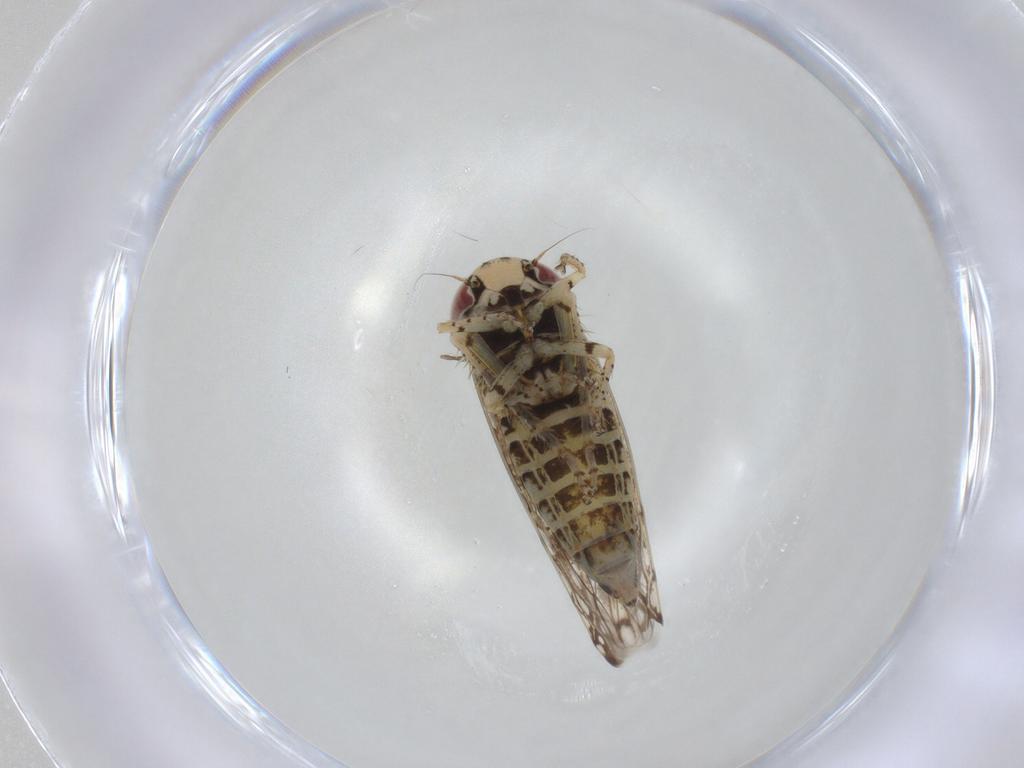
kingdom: Animalia
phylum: Arthropoda
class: Insecta
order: Hemiptera
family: Cicadellidae
